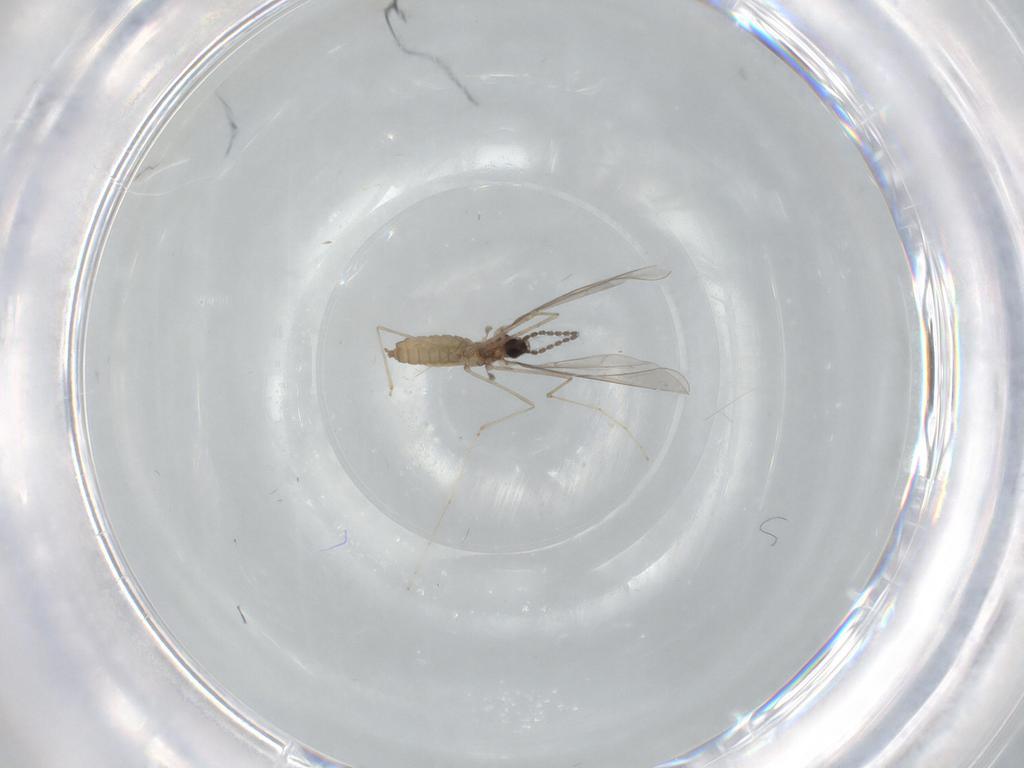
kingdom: Animalia
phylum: Arthropoda
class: Insecta
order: Diptera
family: Cecidomyiidae
